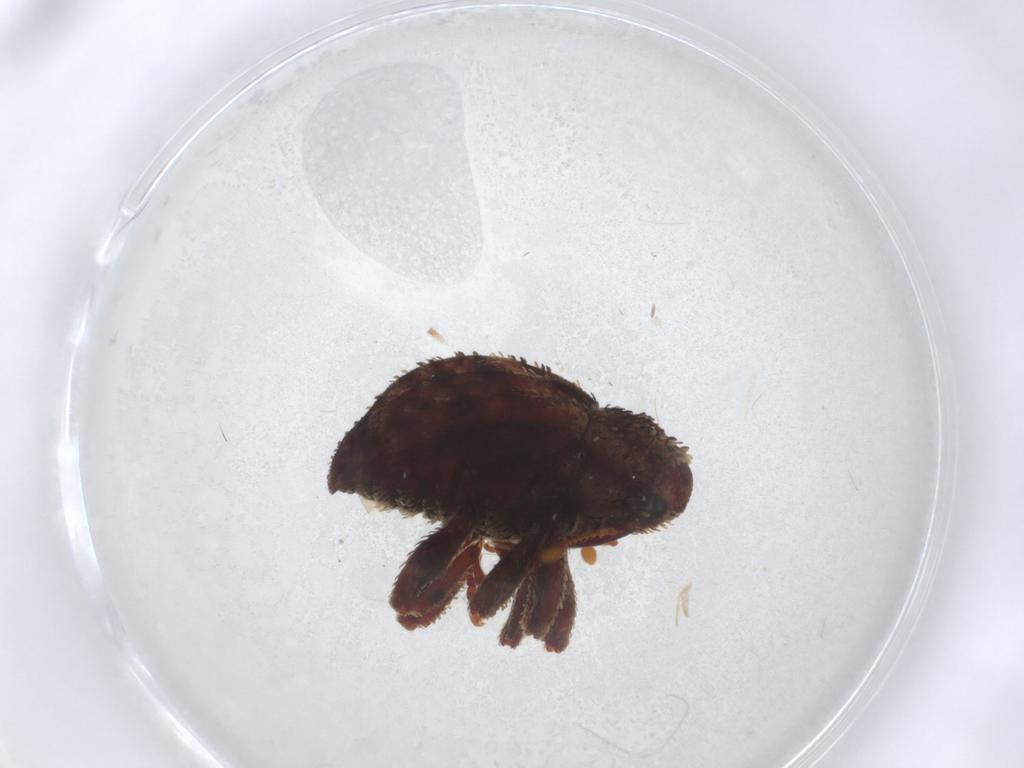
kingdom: Animalia
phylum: Arthropoda
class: Insecta
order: Coleoptera
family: Curculionidae
